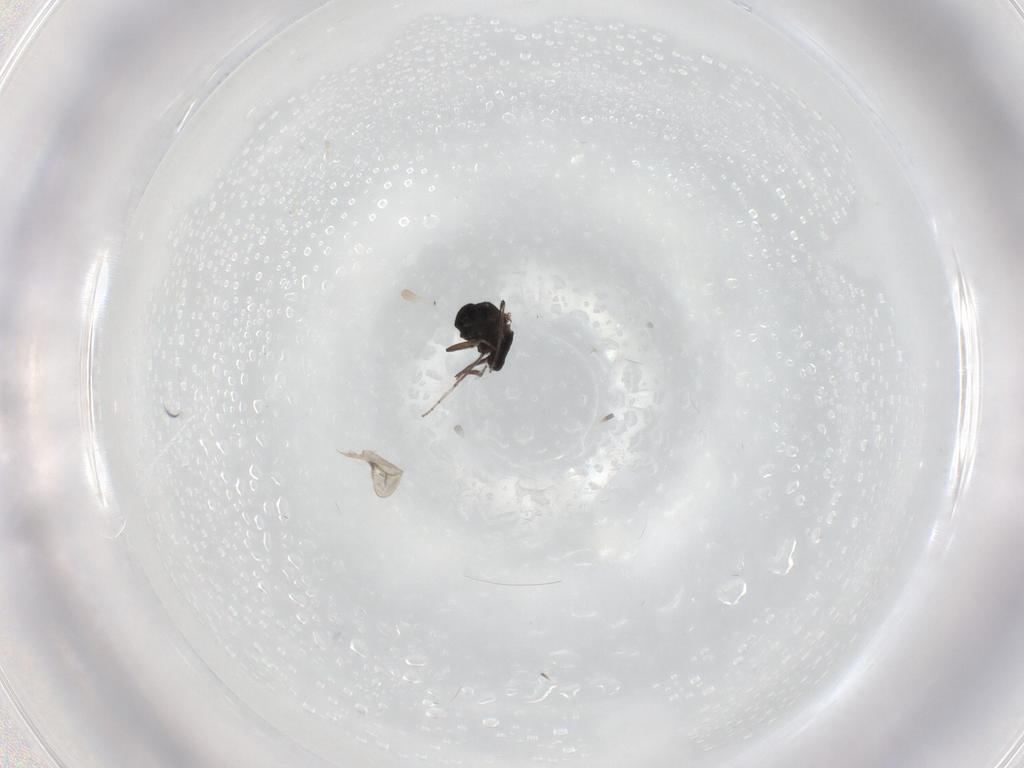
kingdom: Animalia
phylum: Arthropoda
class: Insecta
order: Diptera
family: Ceratopogonidae
